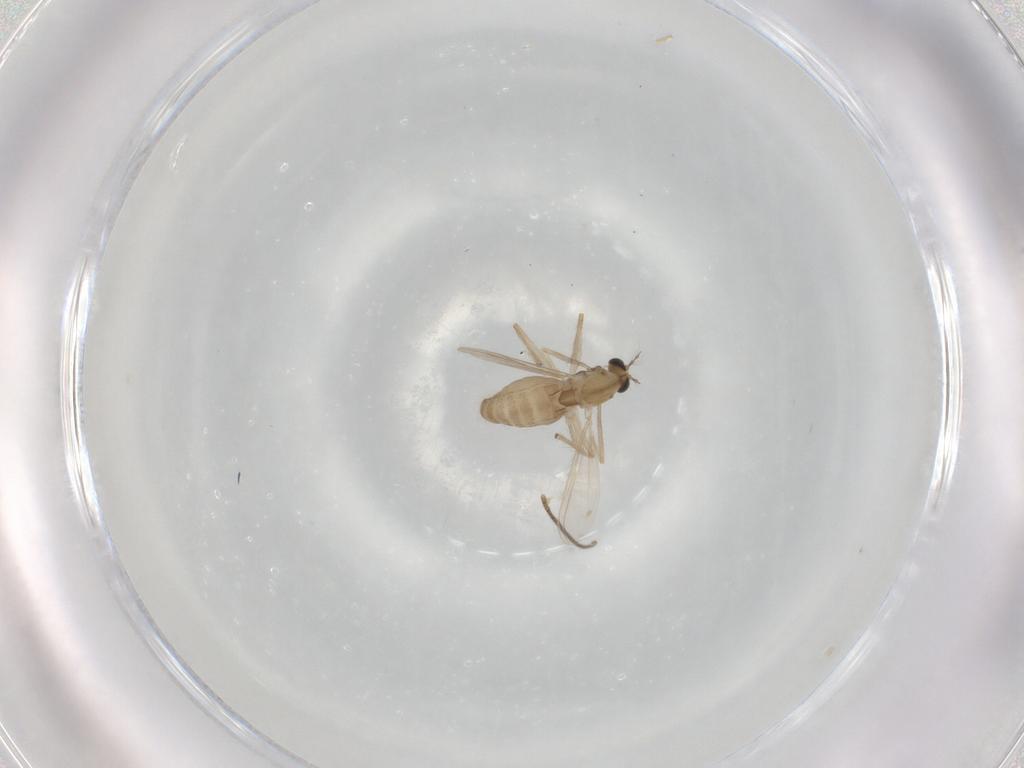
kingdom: Animalia
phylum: Arthropoda
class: Insecta
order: Diptera
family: Chironomidae
